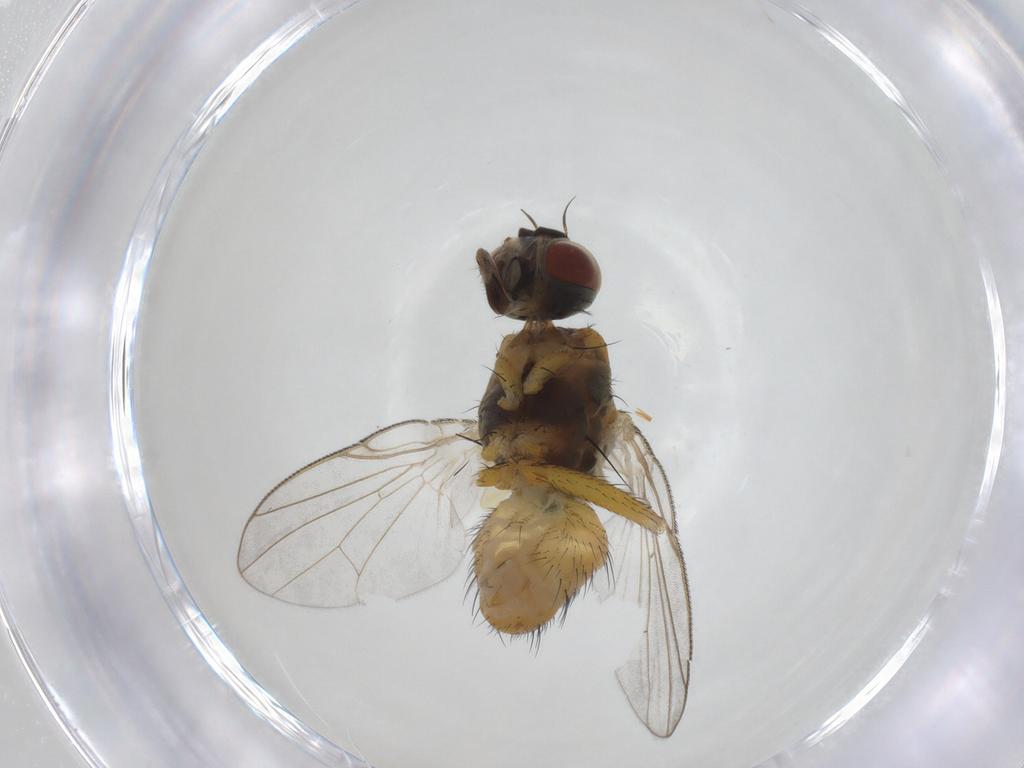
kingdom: Animalia
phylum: Arthropoda
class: Insecta
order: Diptera
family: Muscidae
